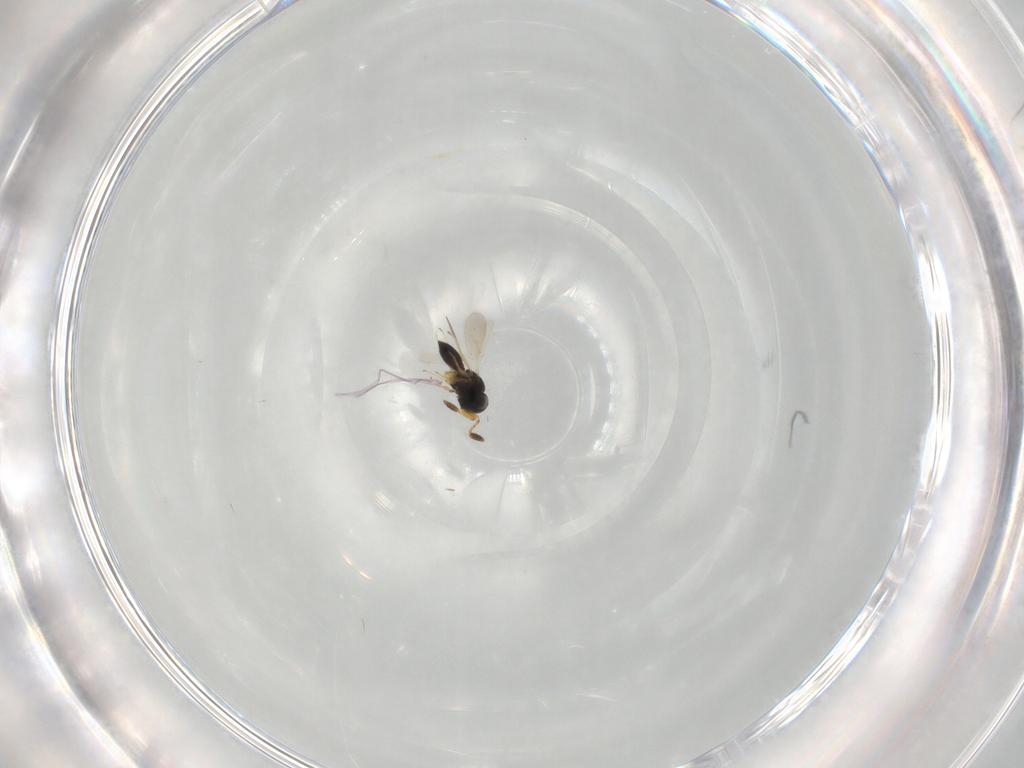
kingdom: Animalia
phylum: Arthropoda
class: Insecta
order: Hymenoptera
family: Scelionidae
